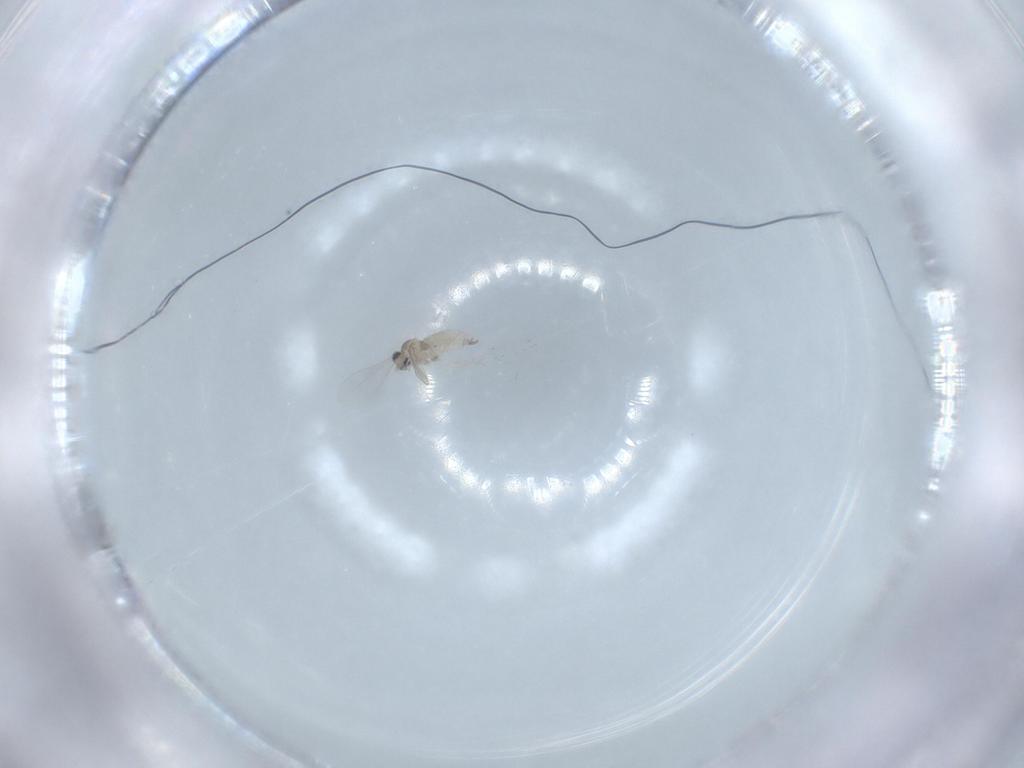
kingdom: Animalia
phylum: Arthropoda
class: Insecta
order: Diptera
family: Cecidomyiidae
